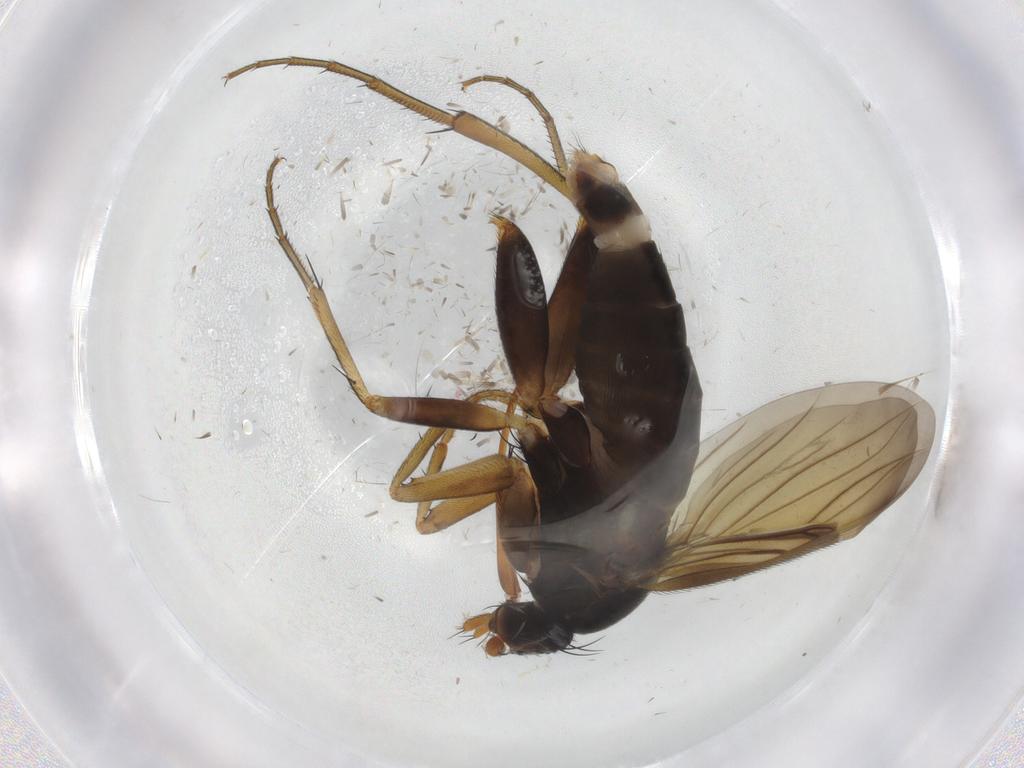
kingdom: Animalia
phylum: Arthropoda
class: Insecta
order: Diptera
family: Phoridae
